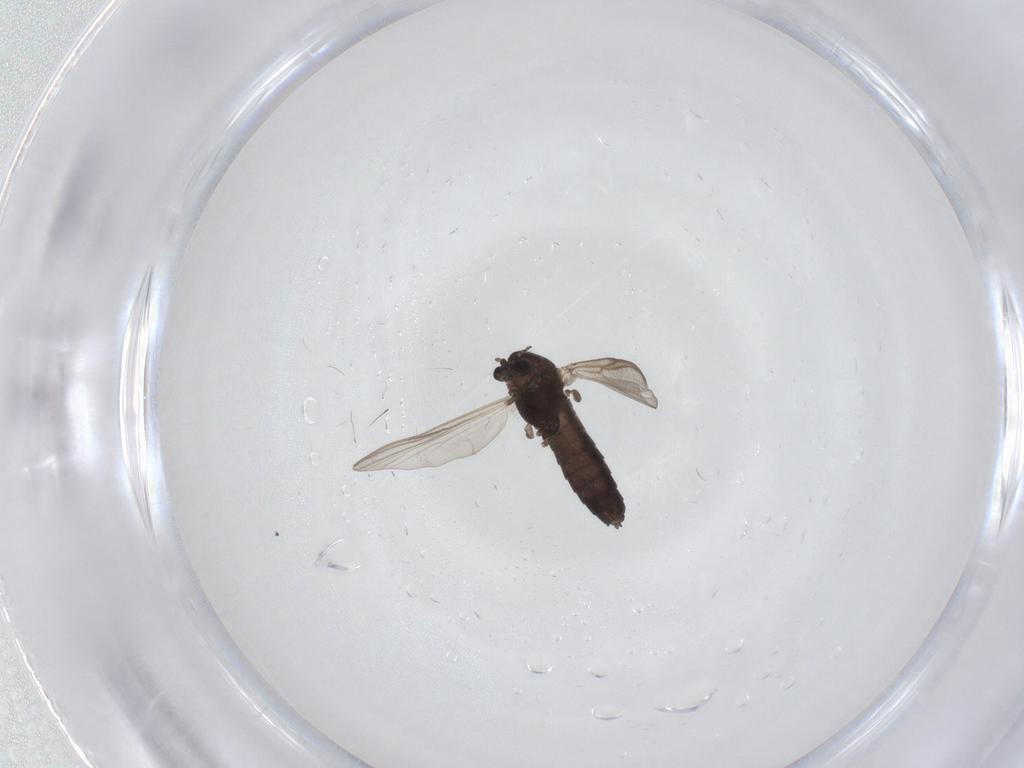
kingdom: Animalia
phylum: Arthropoda
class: Insecta
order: Diptera
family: Chironomidae
